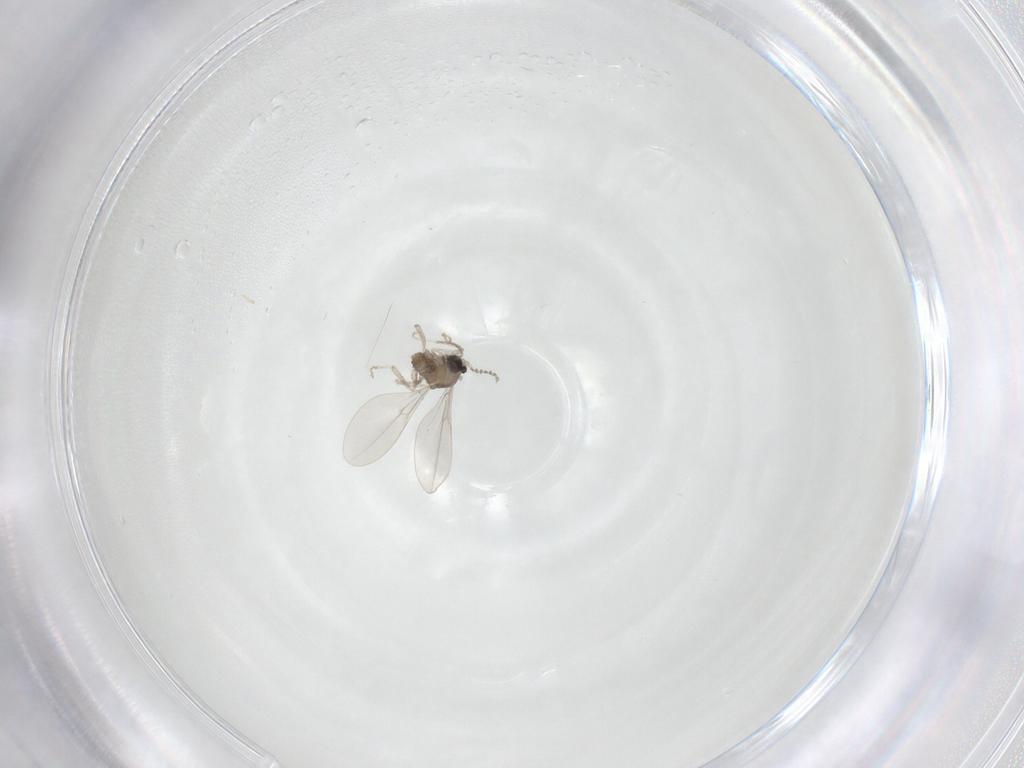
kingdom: Animalia
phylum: Arthropoda
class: Insecta
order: Diptera
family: Cecidomyiidae
